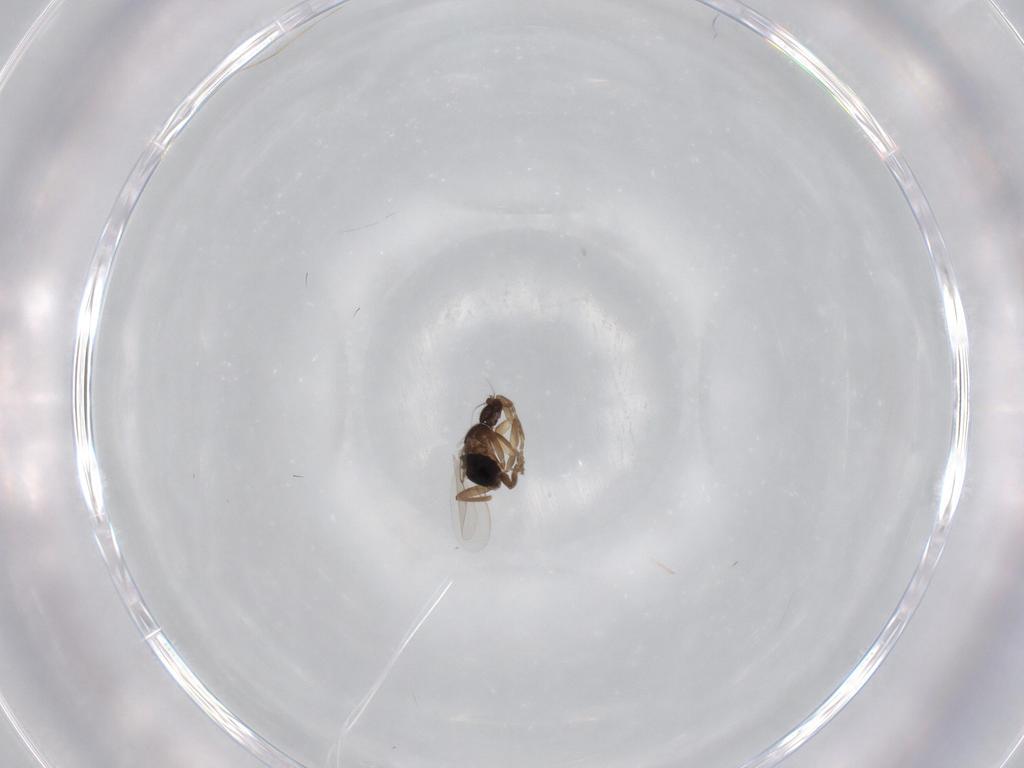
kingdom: Animalia
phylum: Arthropoda
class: Insecta
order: Diptera
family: Phoridae
